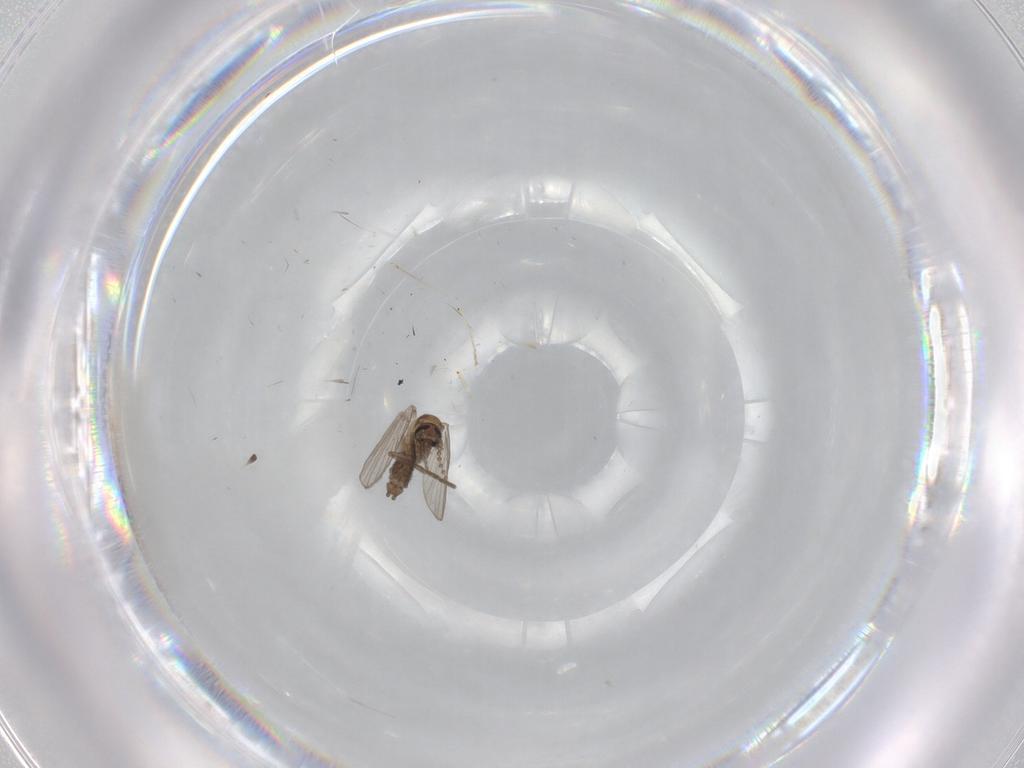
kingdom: Animalia
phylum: Arthropoda
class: Insecta
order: Diptera
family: Psychodidae
